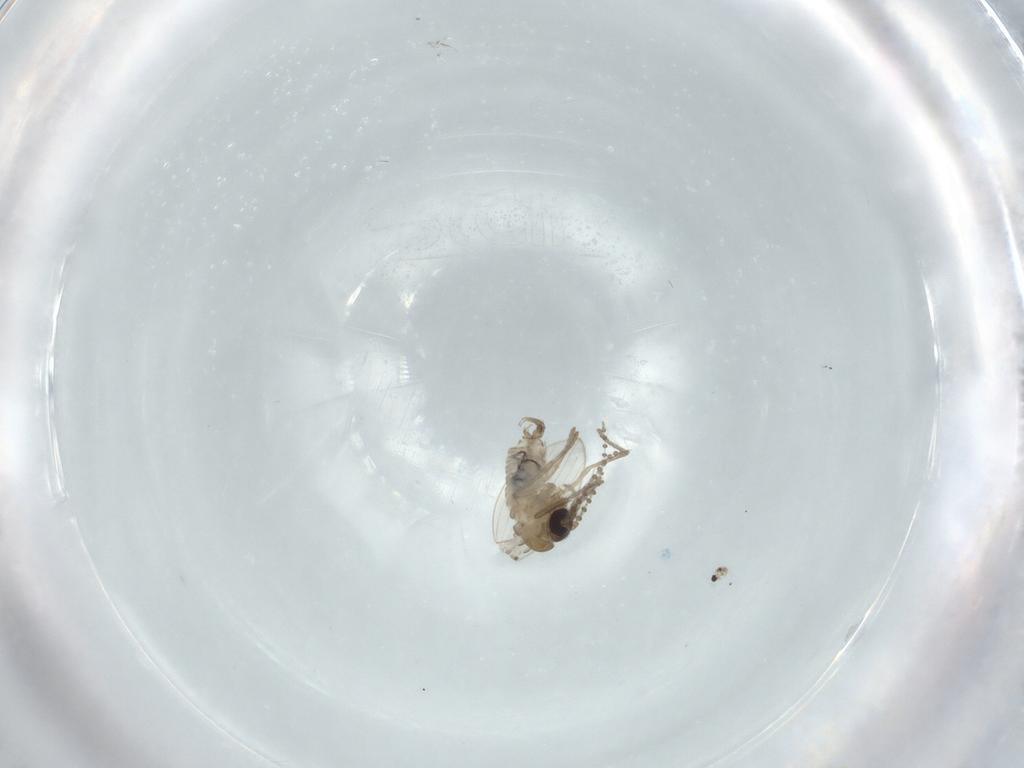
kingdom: Animalia
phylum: Arthropoda
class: Insecta
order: Diptera
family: Psychodidae
